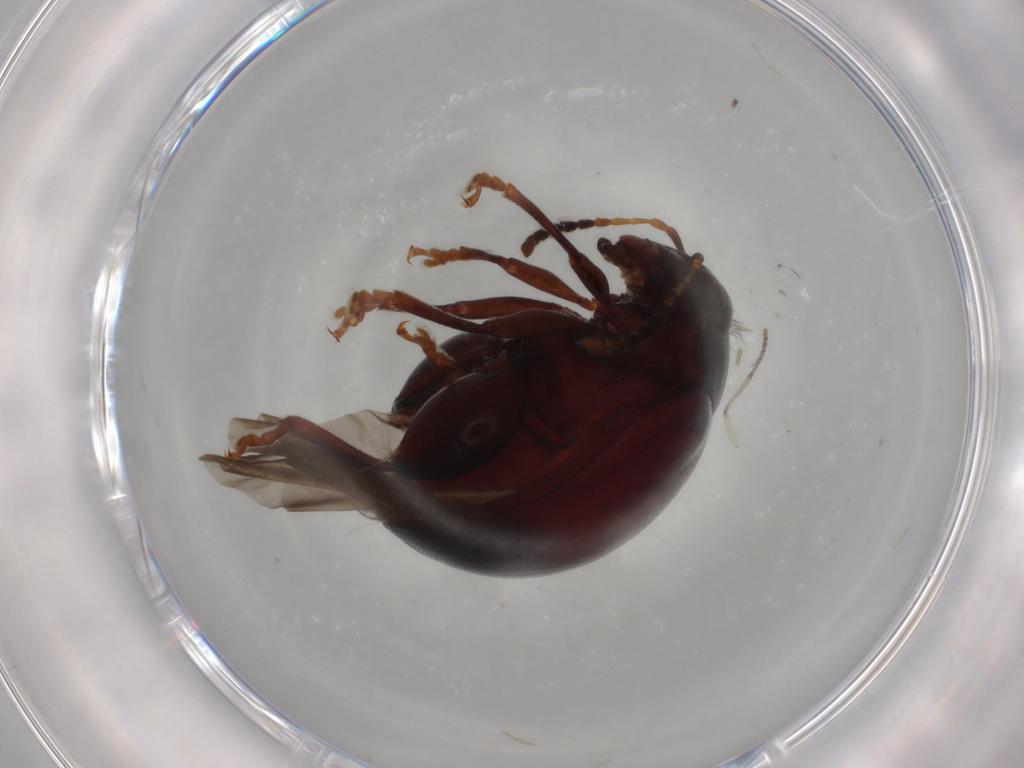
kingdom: Animalia
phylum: Arthropoda
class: Insecta
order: Coleoptera
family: Chrysomelidae
